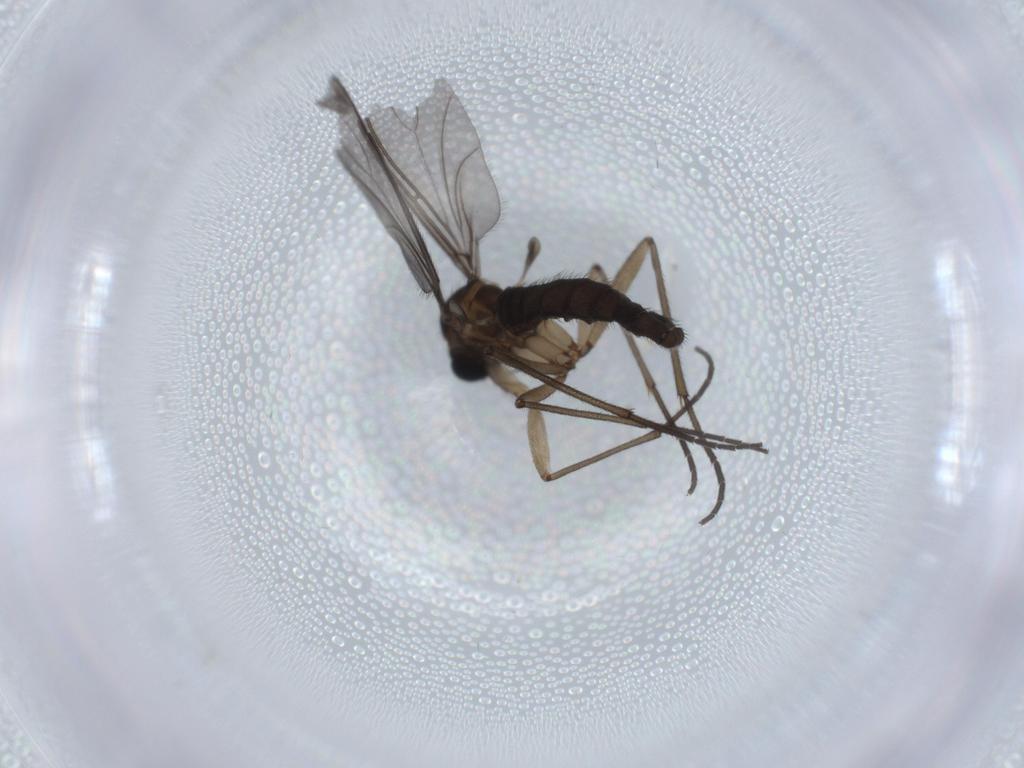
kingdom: Animalia
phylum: Arthropoda
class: Insecta
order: Diptera
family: Sciaridae
